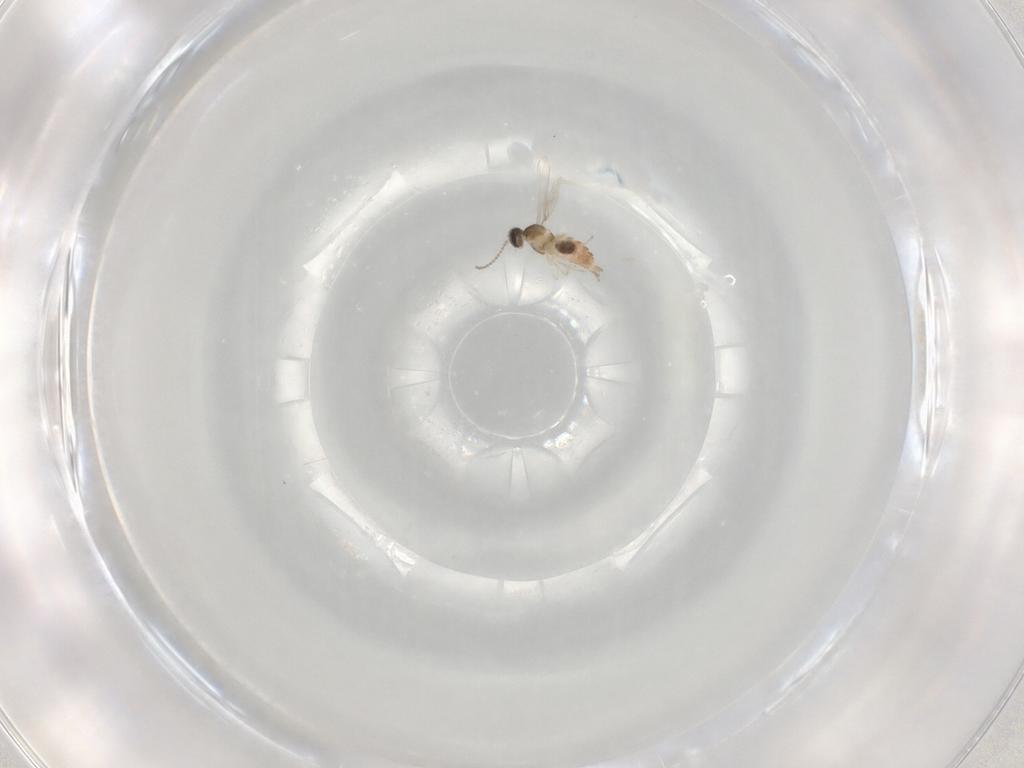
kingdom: Animalia
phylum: Arthropoda
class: Insecta
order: Diptera
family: Cecidomyiidae
